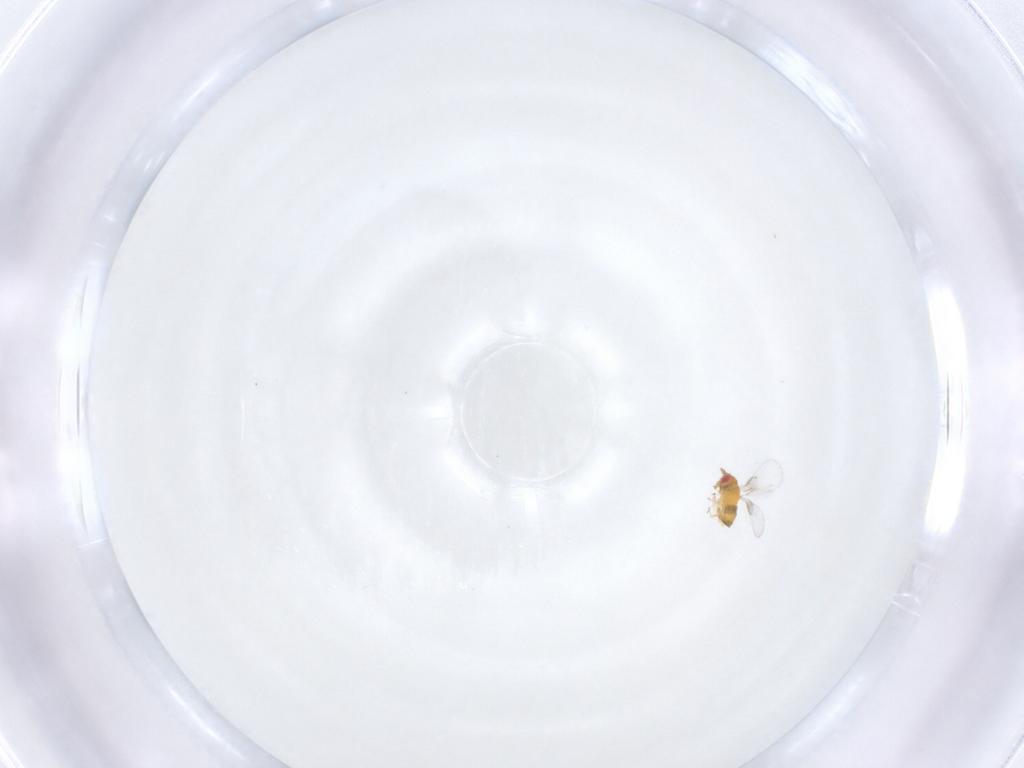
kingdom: Animalia
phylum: Arthropoda
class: Insecta
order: Hymenoptera
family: Trichogrammatidae
